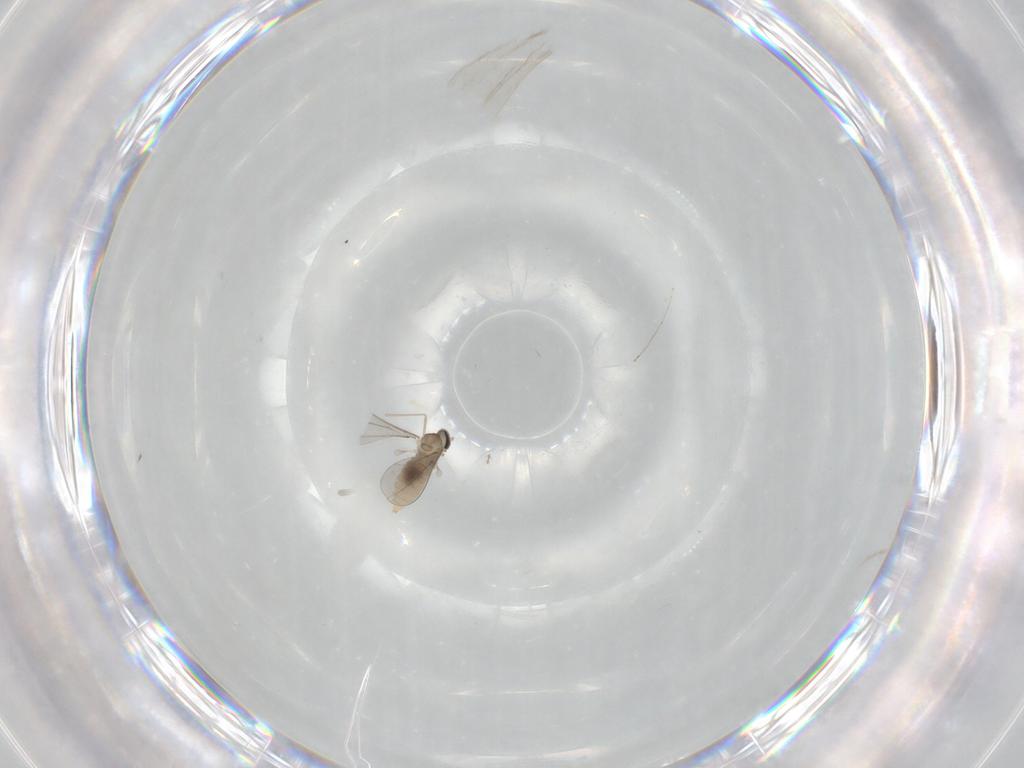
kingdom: Animalia
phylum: Arthropoda
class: Insecta
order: Diptera
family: Cecidomyiidae
